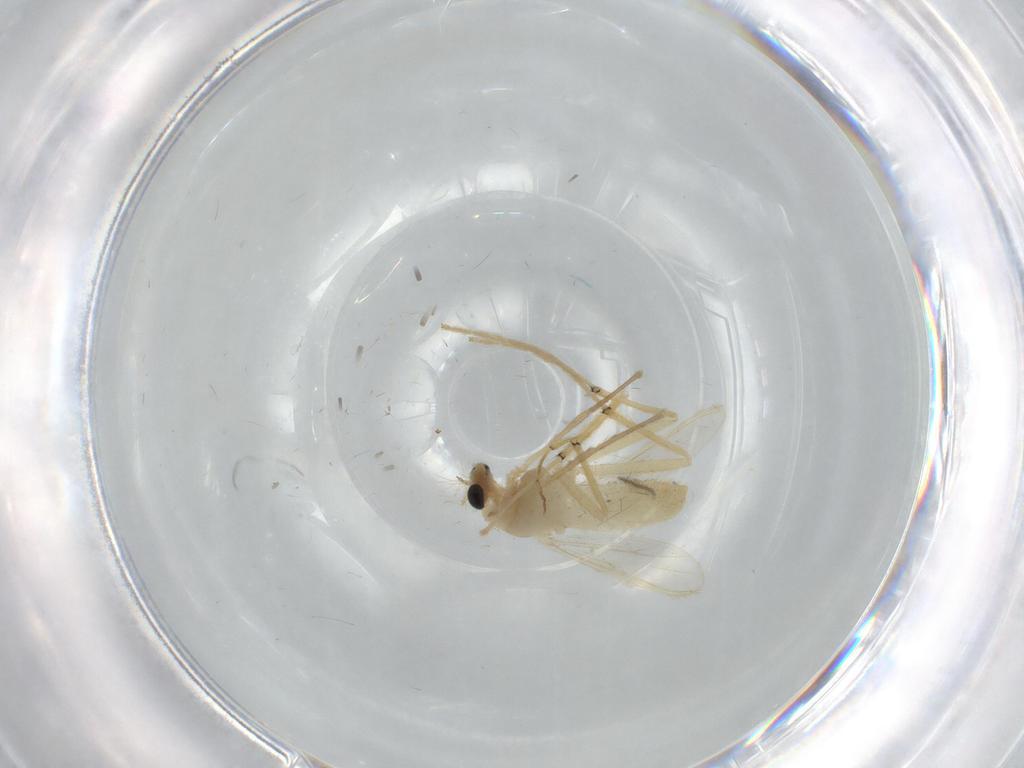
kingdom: Animalia
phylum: Arthropoda
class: Insecta
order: Diptera
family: Chironomidae
